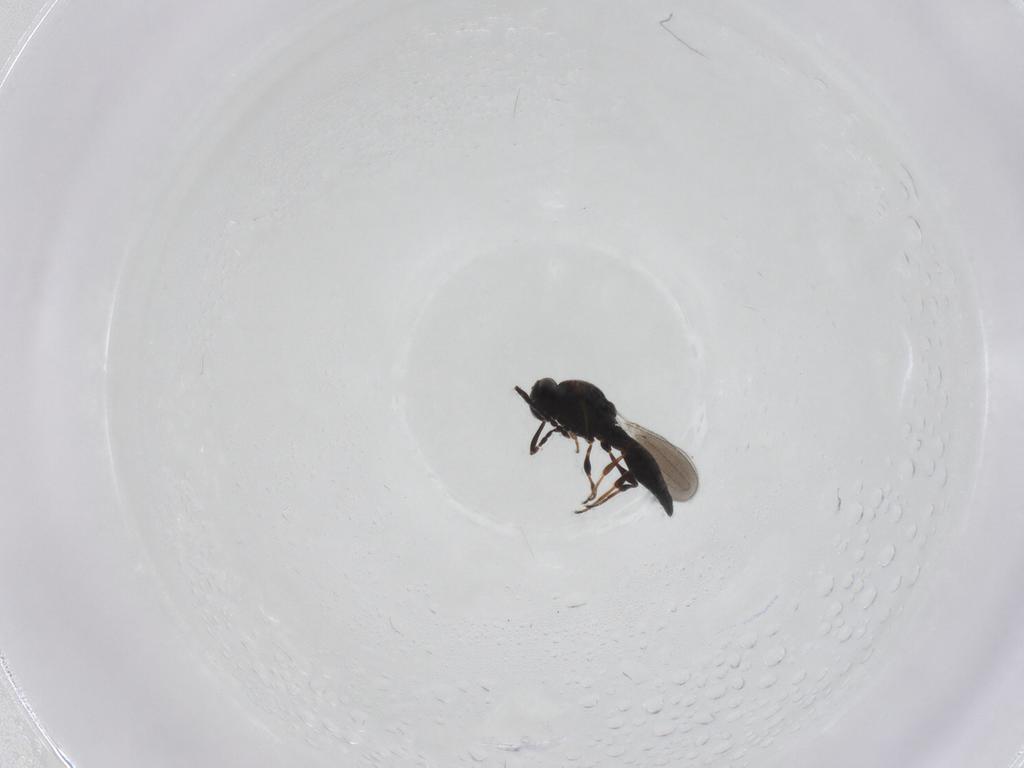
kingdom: Animalia
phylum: Arthropoda
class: Insecta
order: Hymenoptera
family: Platygastridae
